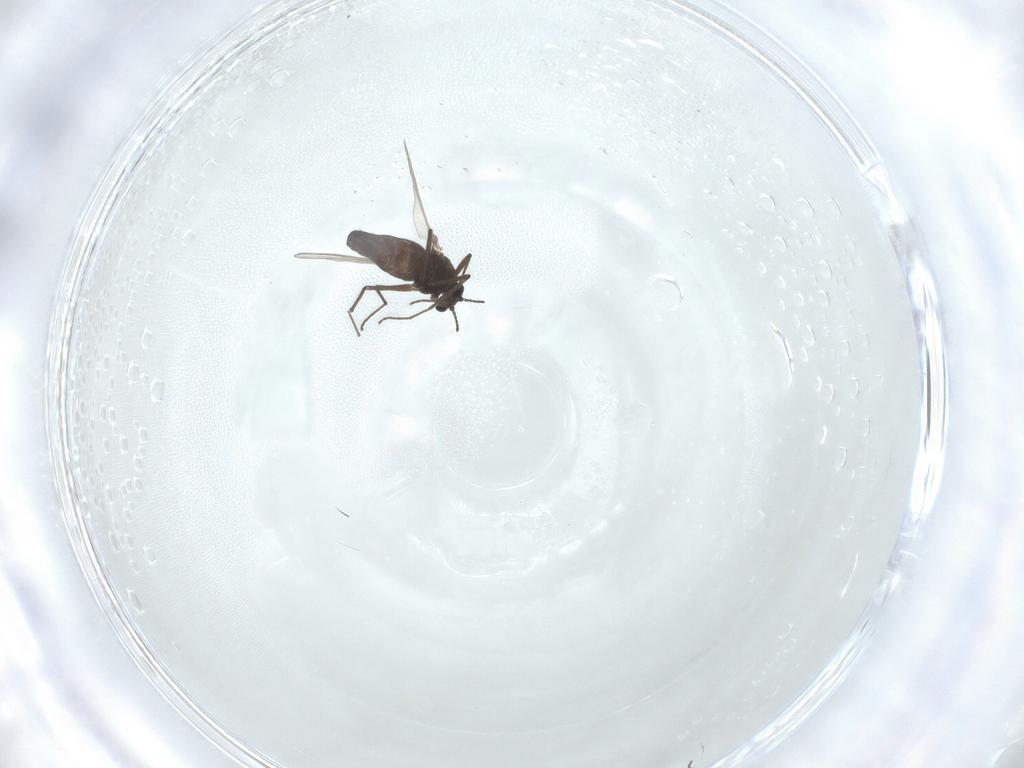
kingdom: Animalia
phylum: Arthropoda
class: Insecta
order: Diptera
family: Chironomidae
